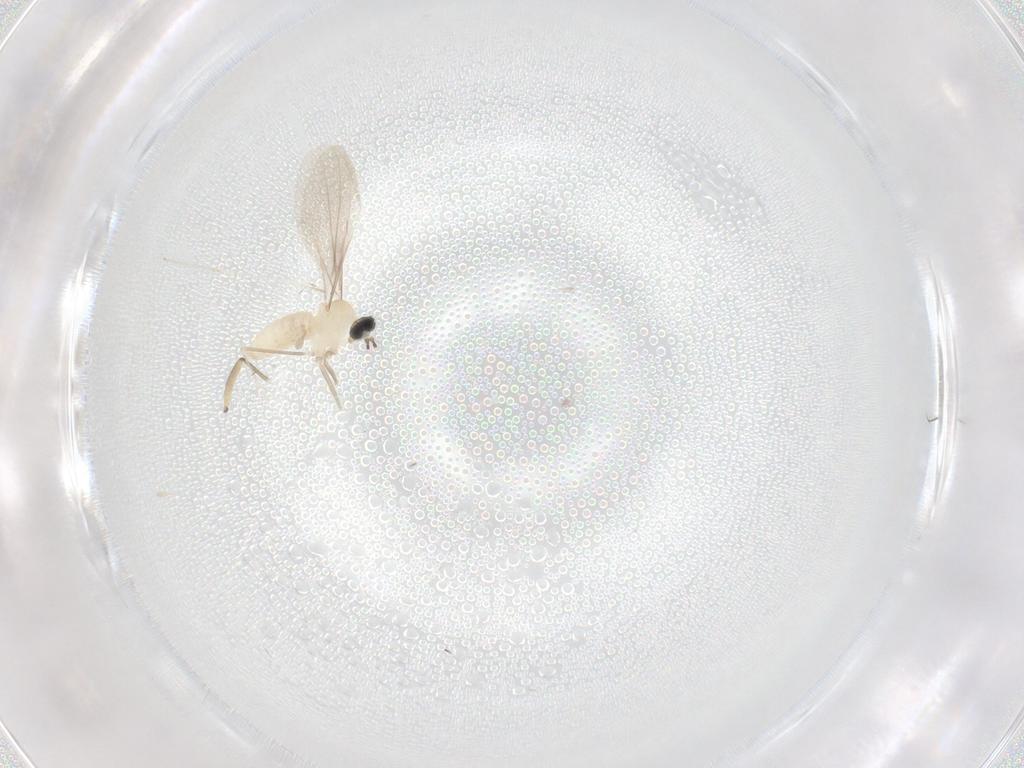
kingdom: Animalia
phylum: Arthropoda
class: Insecta
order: Diptera
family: Cecidomyiidae
